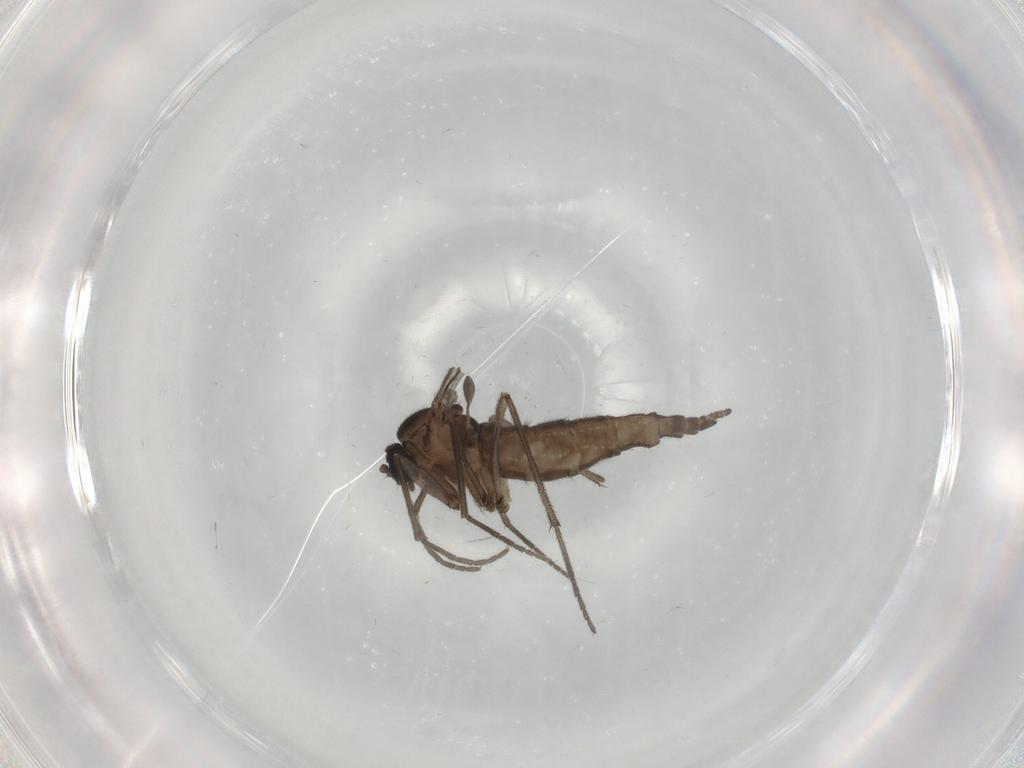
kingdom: Animalia
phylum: Arthropoda
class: Insecta
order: Diptera
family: Sciaridae
